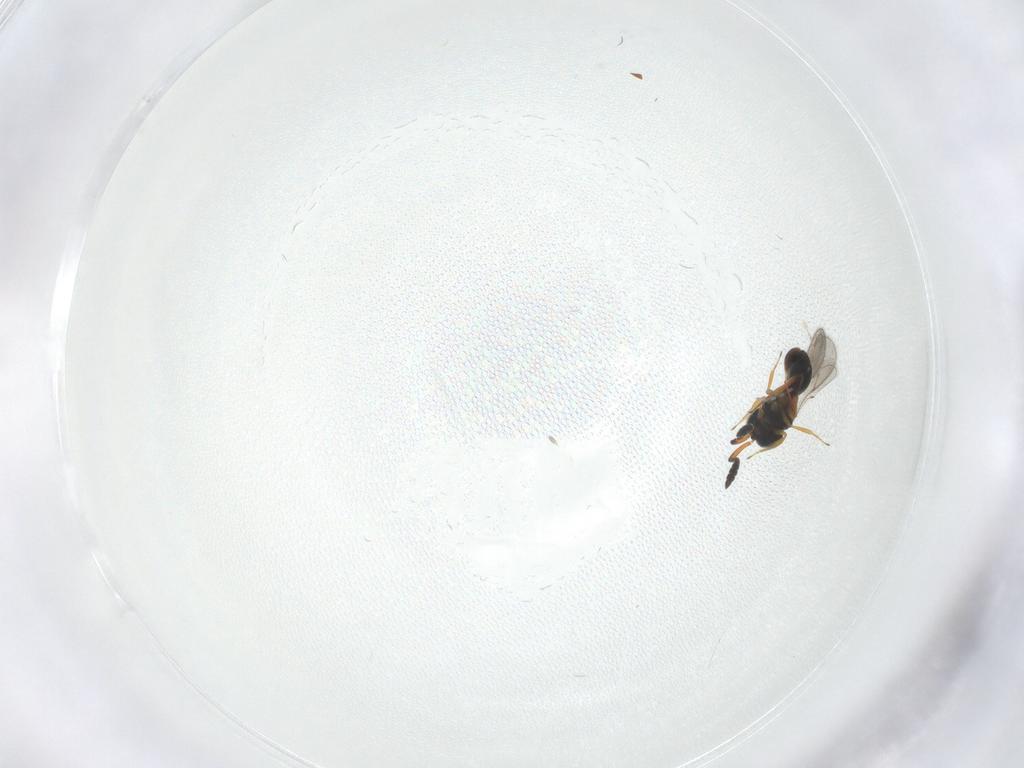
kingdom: Animalia
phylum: Arthropoda
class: Insecta
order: Hymenoptera
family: Scelionidae
